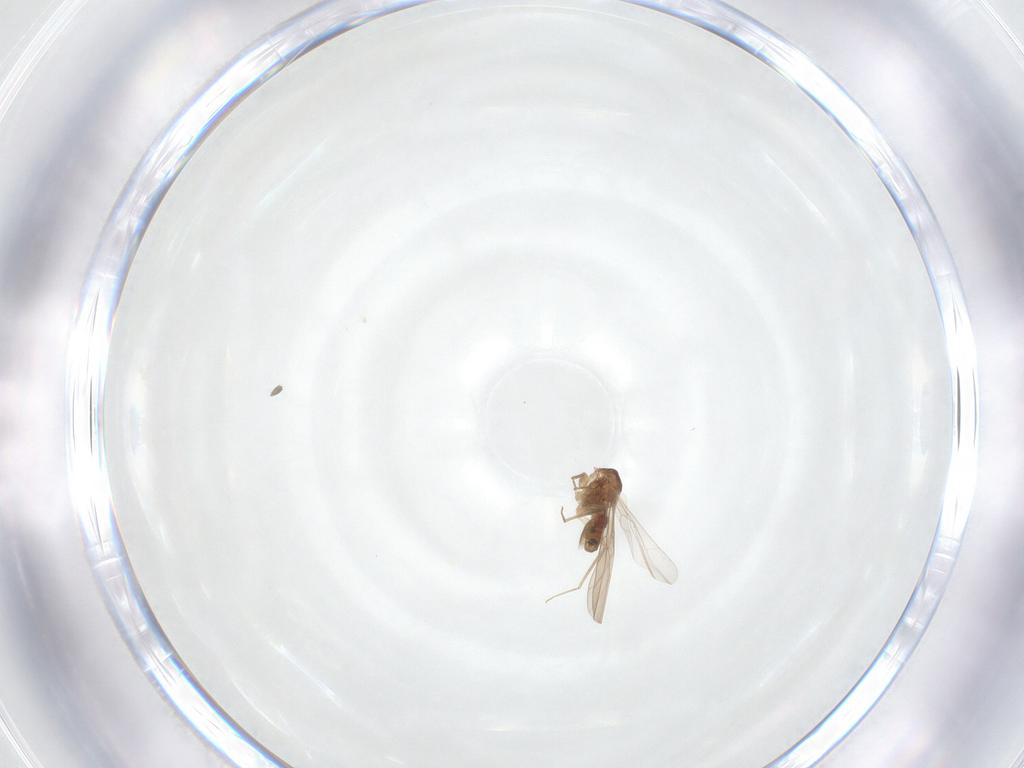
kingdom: Animalia
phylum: Arthropoda
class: Insecta
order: Psocodea
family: Lepidopsocidae
